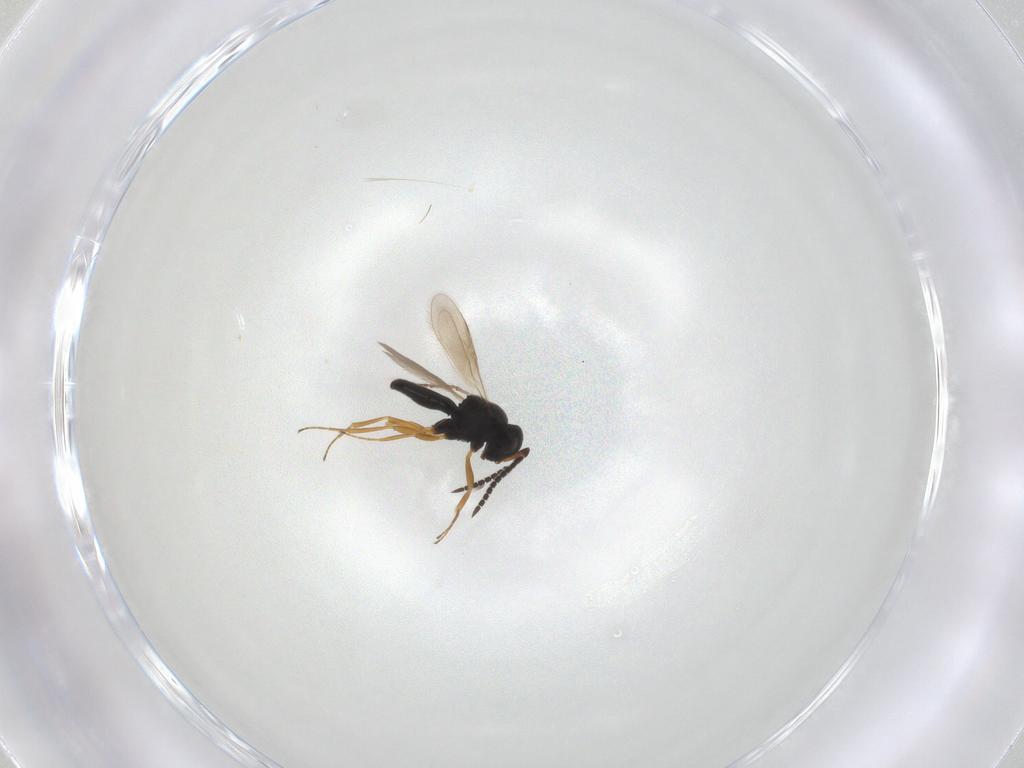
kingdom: Animalia
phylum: Arthropoda
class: Insecta
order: Hymenoptera
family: Scelionidae
